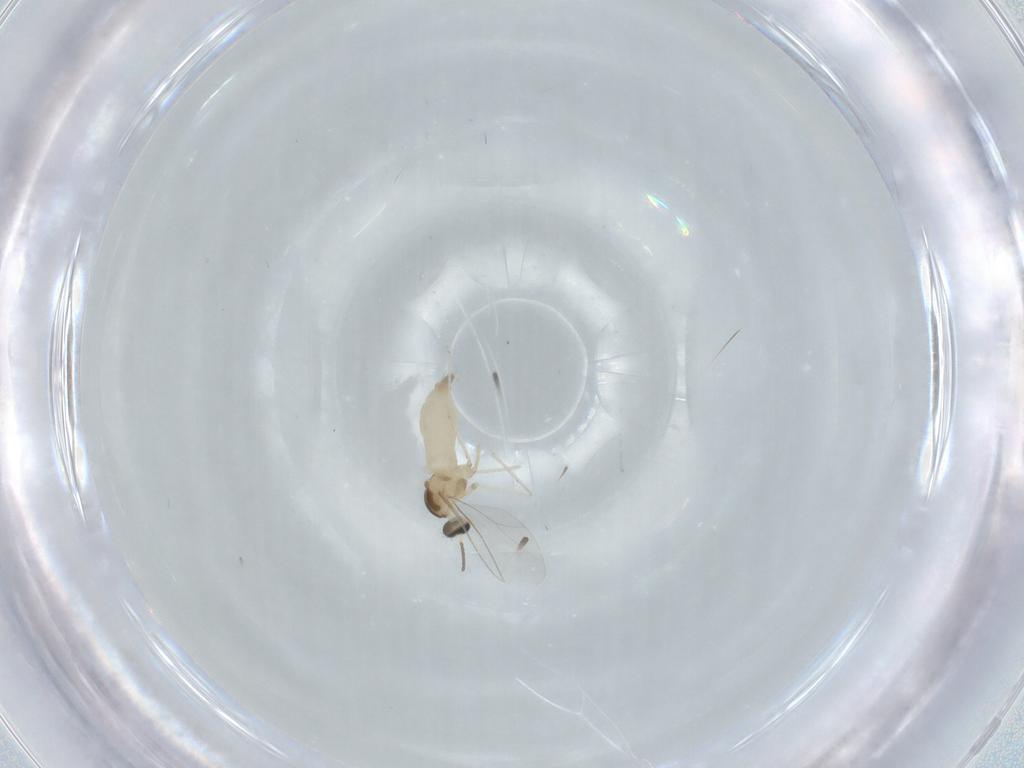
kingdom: Animalia
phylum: Arthropoda
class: Insecta
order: Diptera
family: Cecidomyiidae
